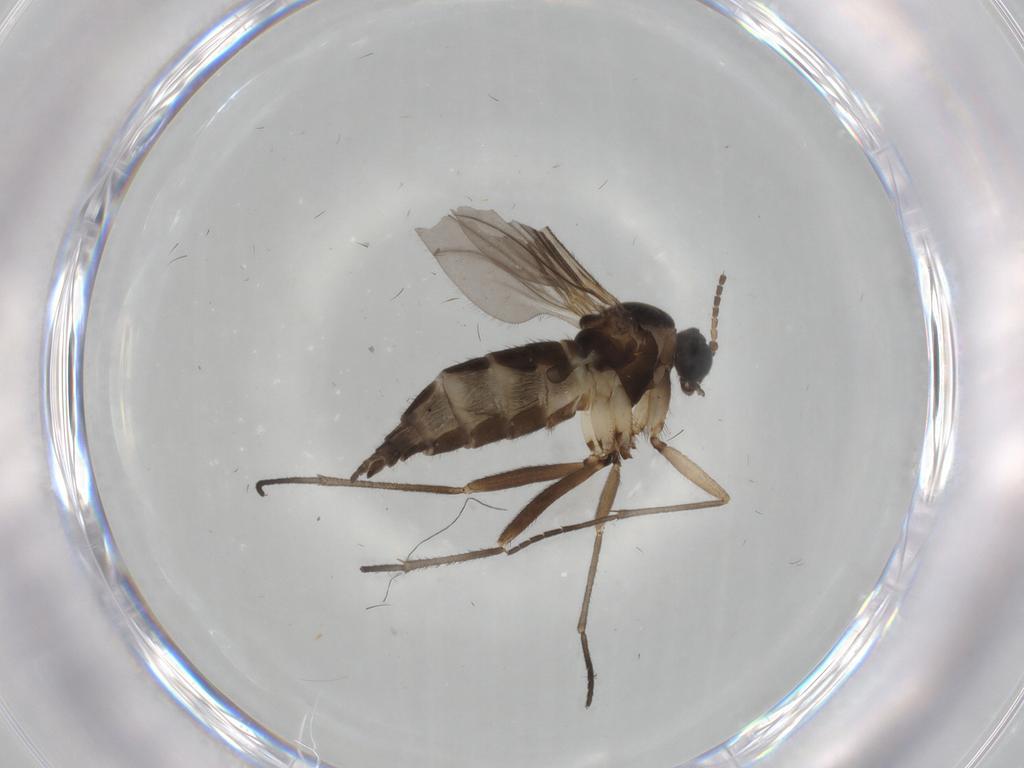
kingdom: Animalia
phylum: Arthropoda
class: Insecta
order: Diptera
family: Sciaridae
